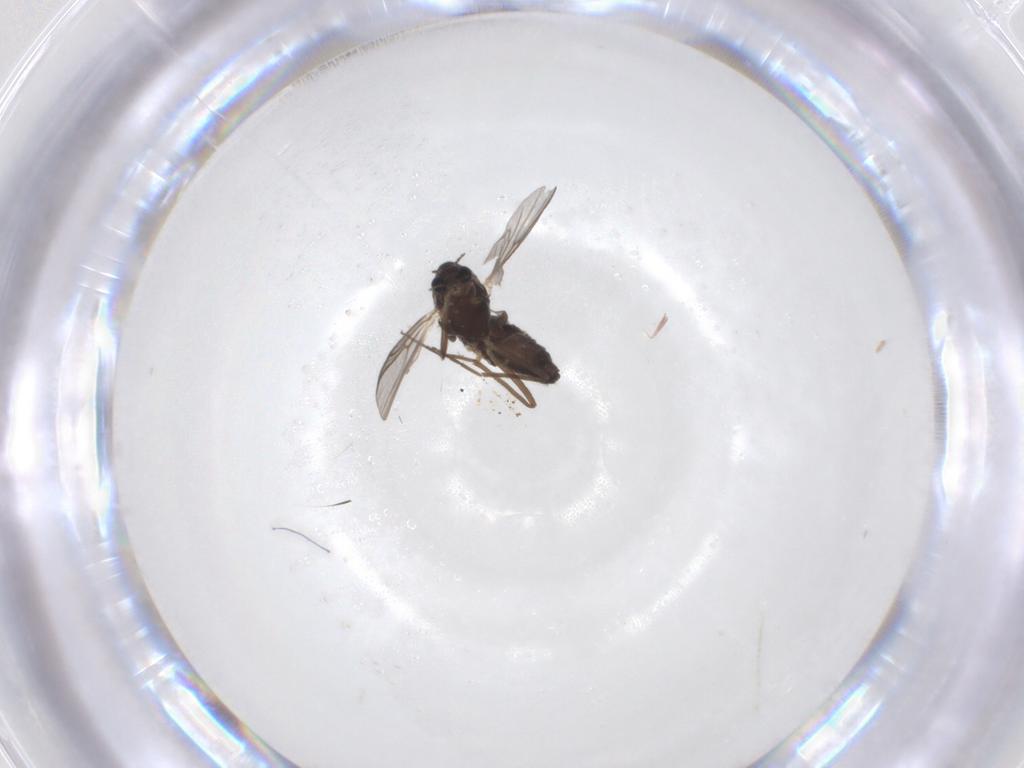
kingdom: Animalia
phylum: Arthropoda
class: Insecta
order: Diptera
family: Chironomidae
